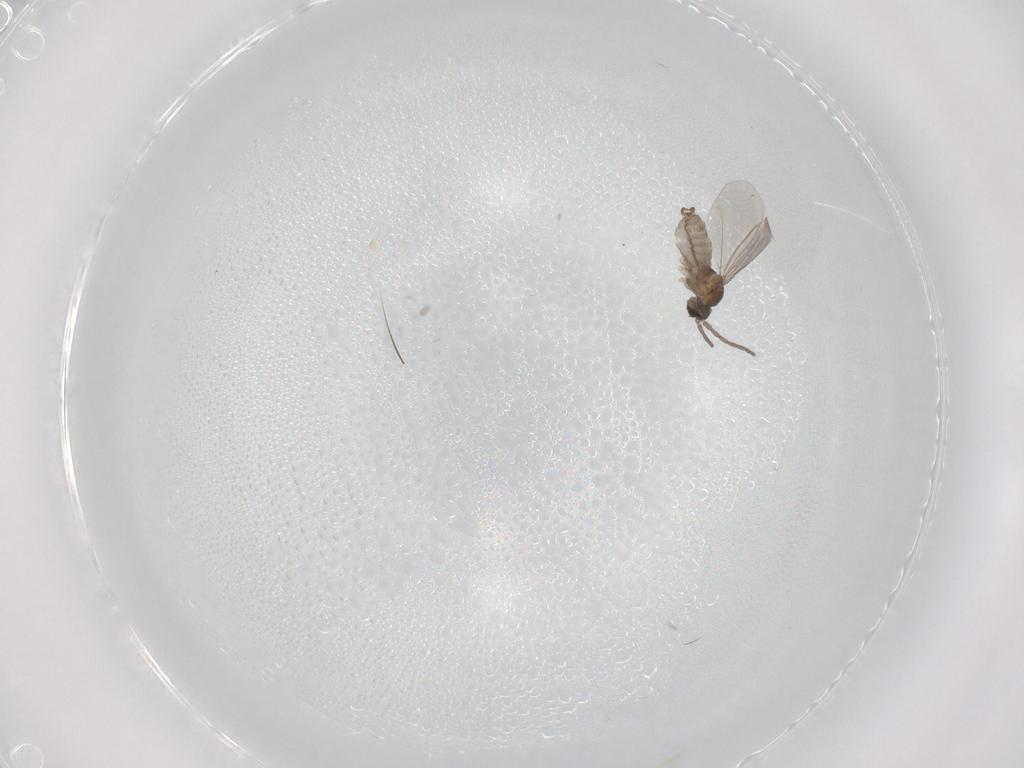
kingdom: Animalia
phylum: Arthropoda
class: Insecta
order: Diptera
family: Cecidomyiidae
